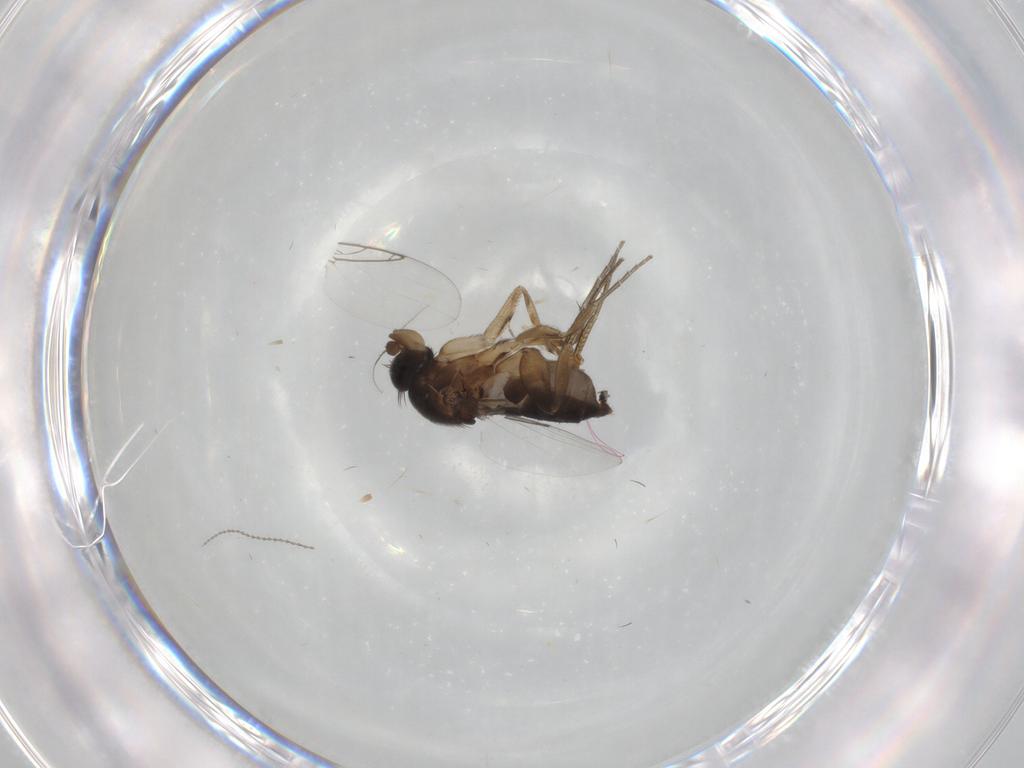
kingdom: Animalia
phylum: Arthropoda
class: Insecta
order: Diptera
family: Phoridae
